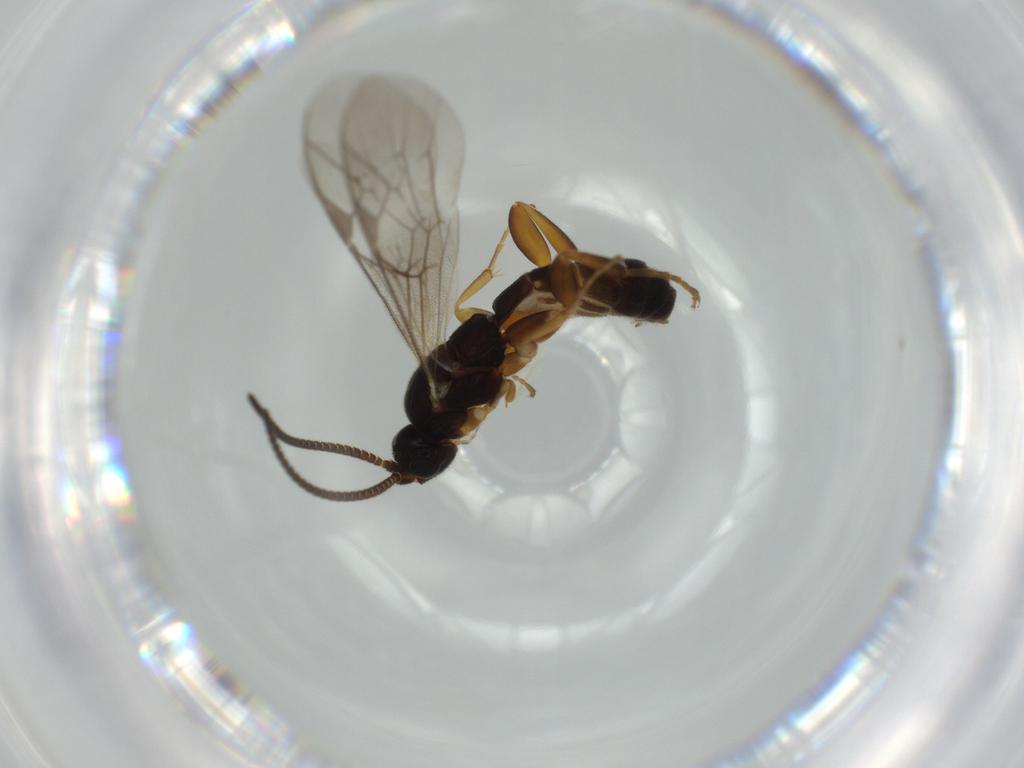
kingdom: Animalia
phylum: Arthropoda
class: Insecta
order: Hymenoptera
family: Ichneumonidae
